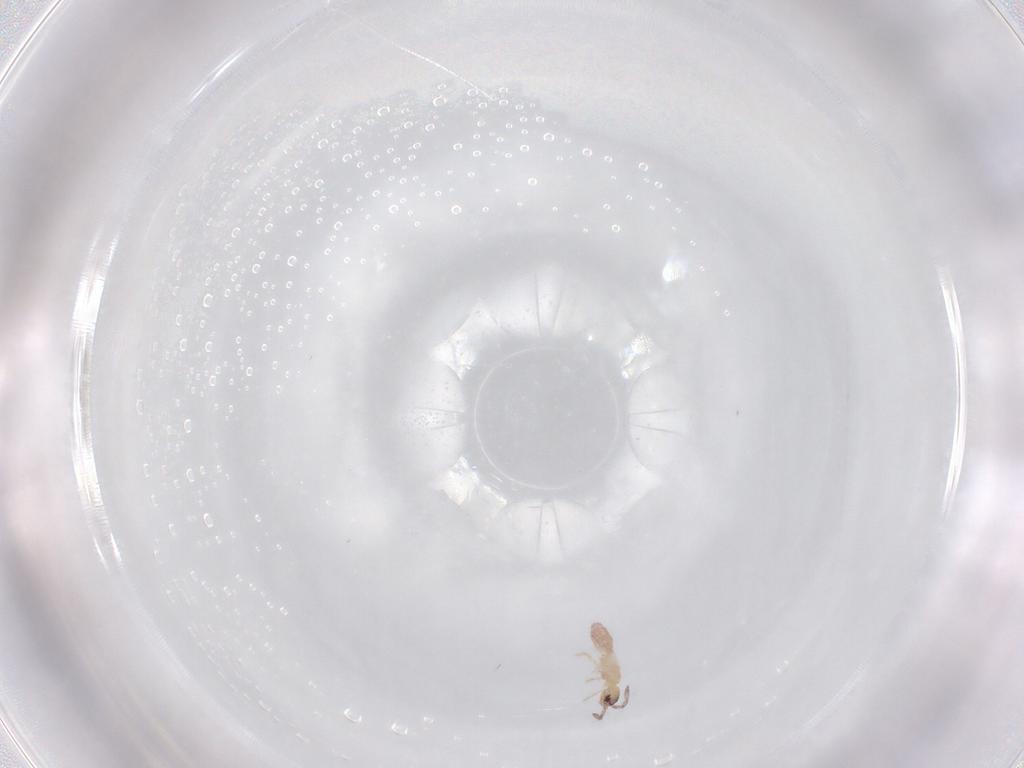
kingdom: Animalia
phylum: Arthropoda
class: Collembola
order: Entomobryomorpha
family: Entomobryidae
